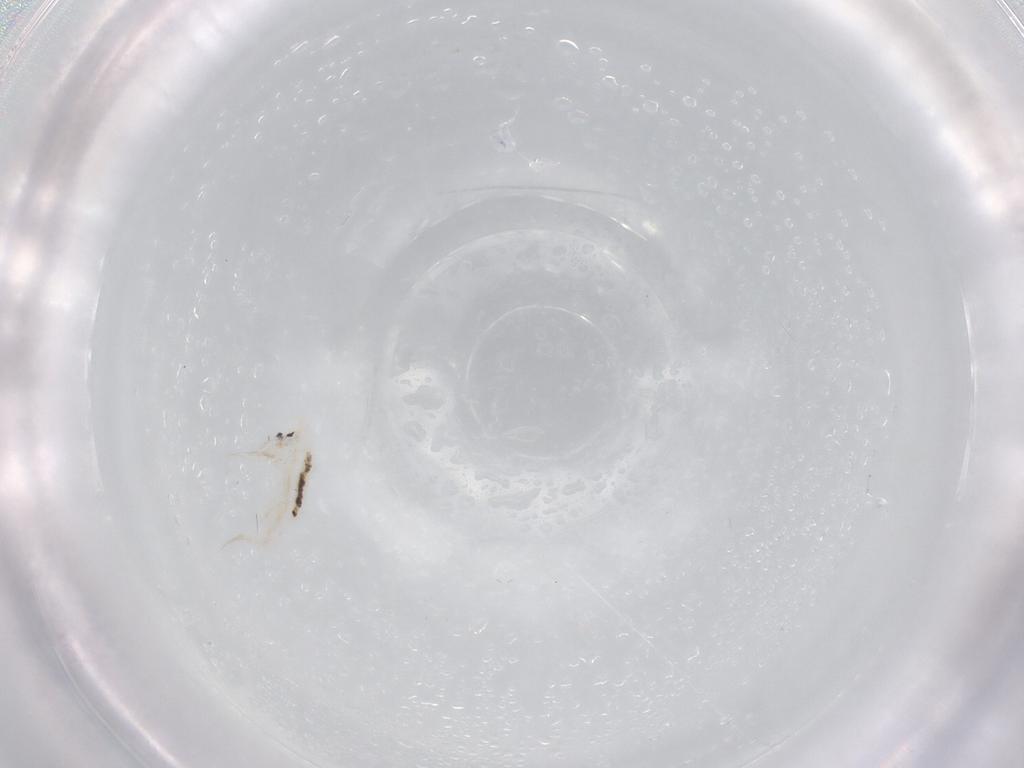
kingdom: Animalia
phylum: Arthropoda
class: Collembola
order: Entomobryomorpha
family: Entomobryidae
